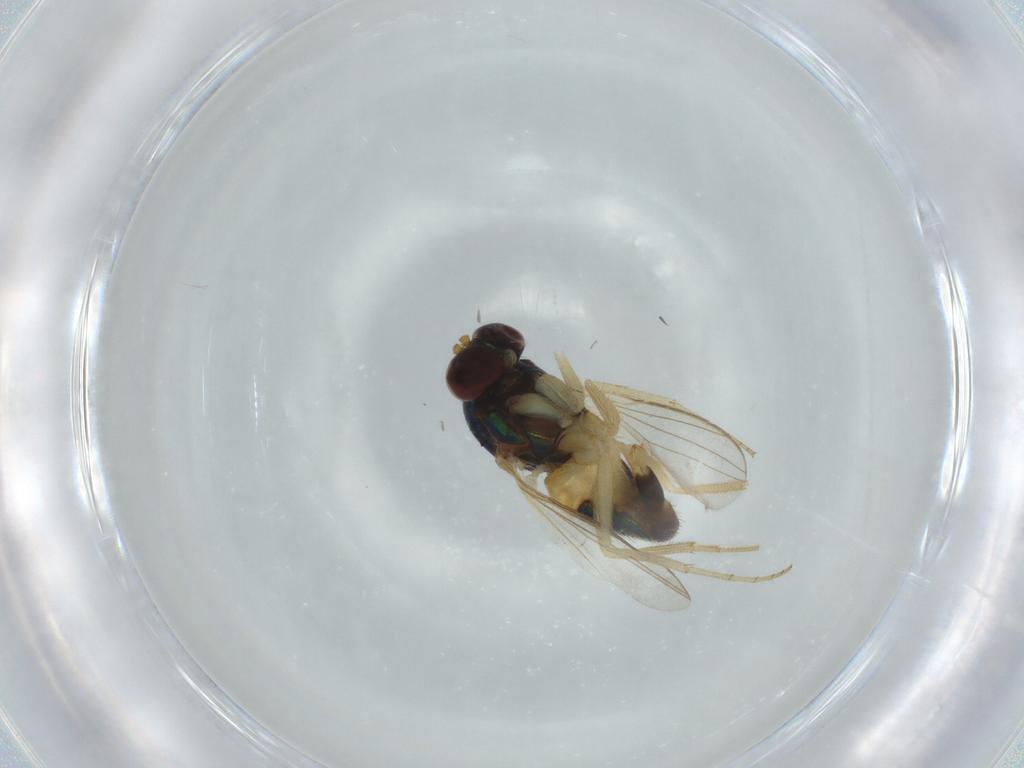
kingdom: Animalia
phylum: Arthropoda
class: Insecta
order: Diptera
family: Dolichopodidae
